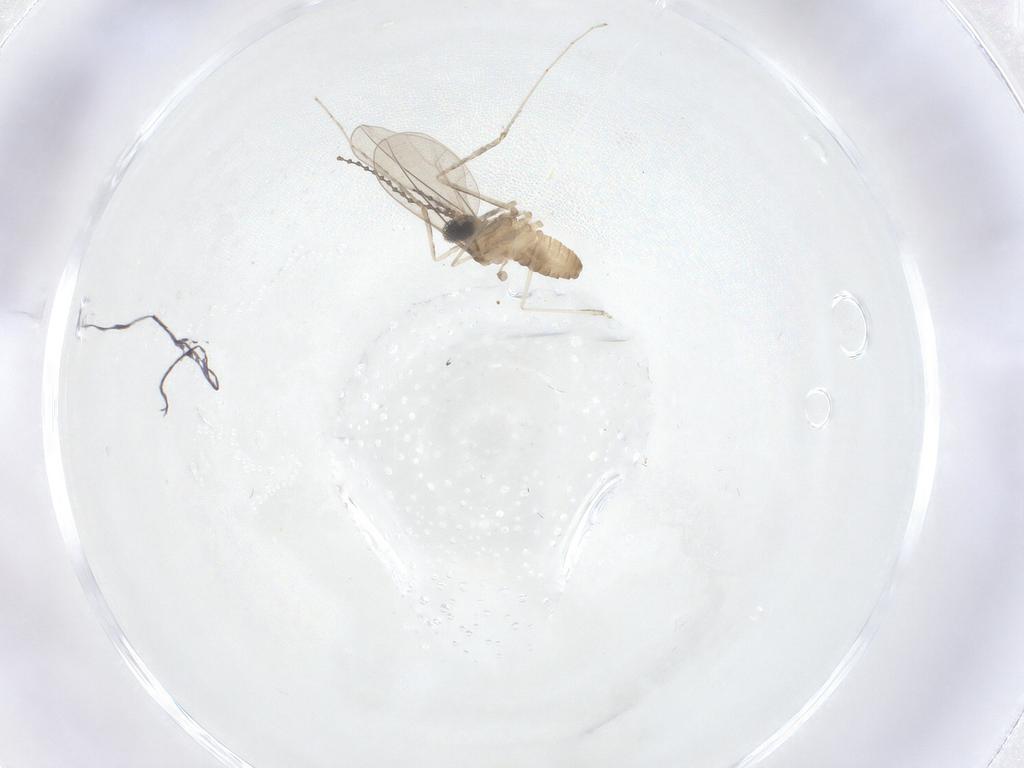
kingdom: Animalia
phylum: Arthropoda
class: Insecta
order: Diptera
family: Cecidomyiidae
